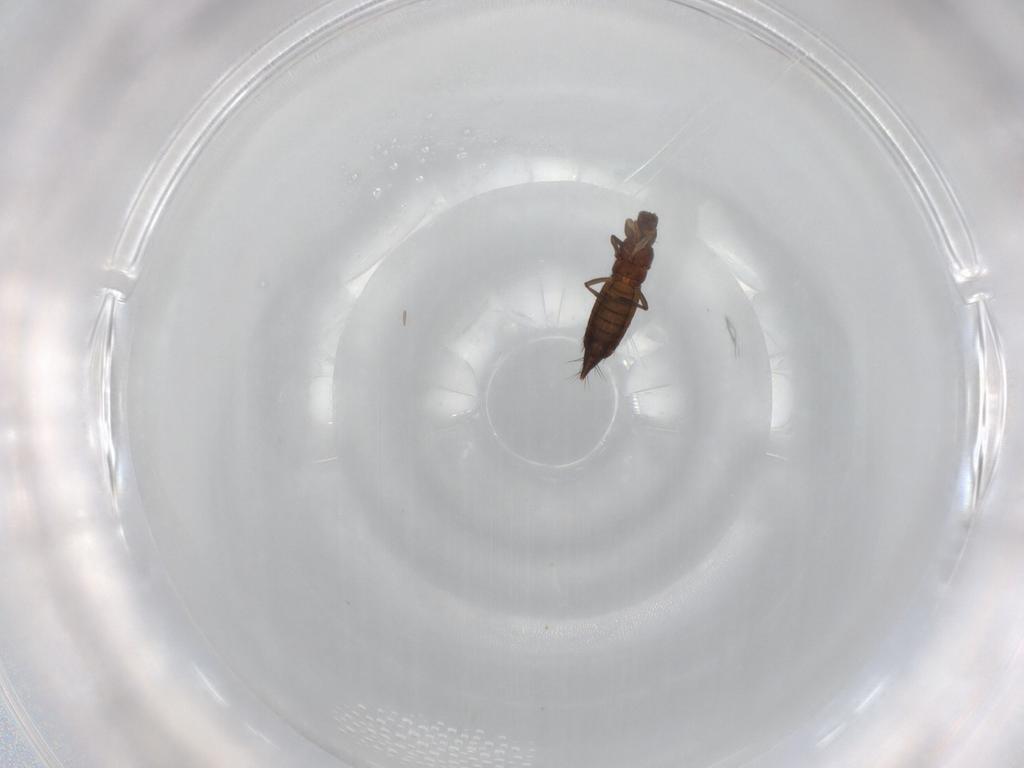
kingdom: Animalia
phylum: Arthropoda
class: Insecta
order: Thysanoptera
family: Thripidae
